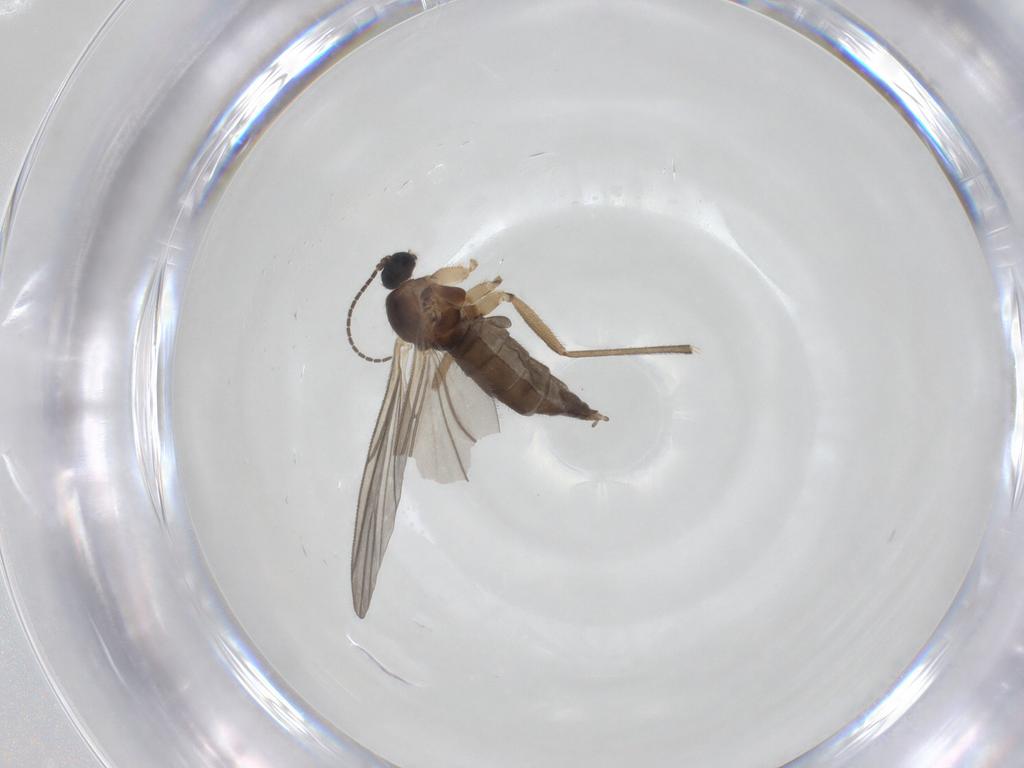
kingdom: Animalia
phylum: Arthropoda
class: Insecta
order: Diptera
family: Sciaridae
